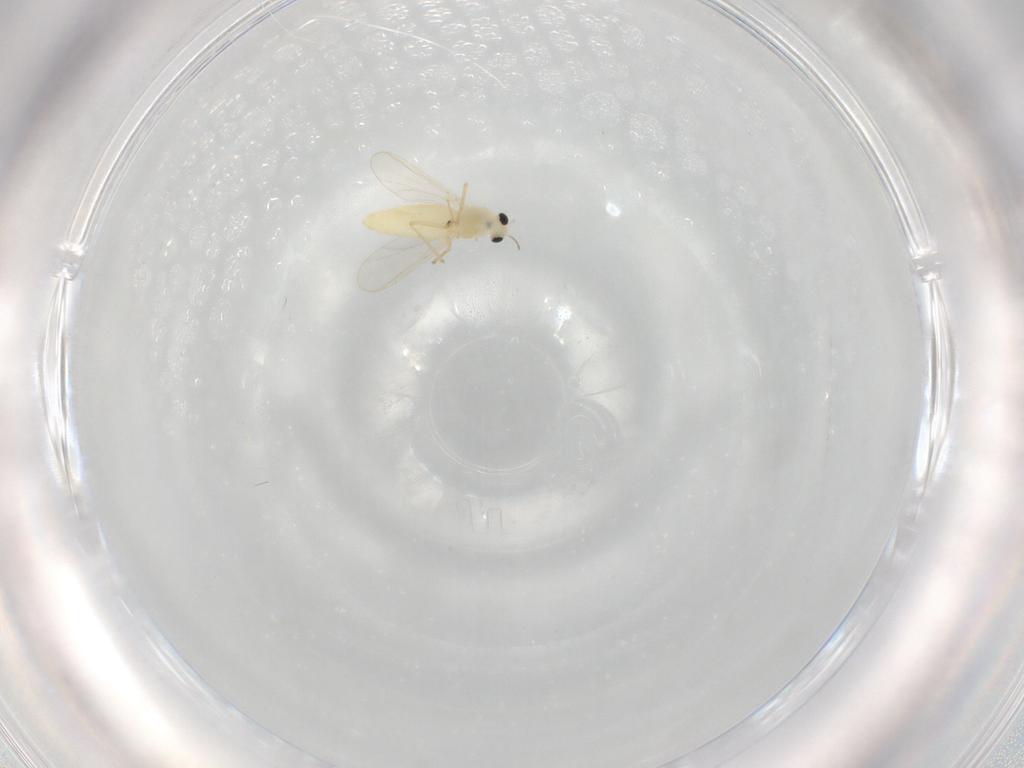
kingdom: Animalia
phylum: Arthropoda
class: Insecta
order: Diptera
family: Chironomidae
